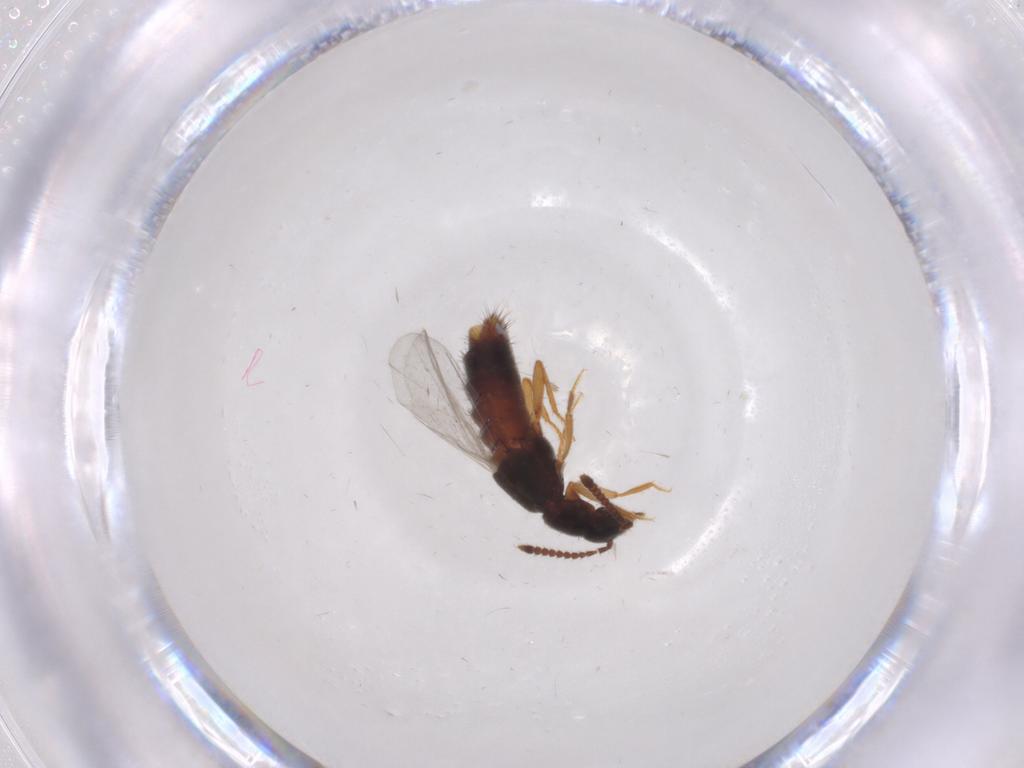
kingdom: Animalia
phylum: Arthropoda
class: Insecta
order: Coleoptera
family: Staphylinidae
